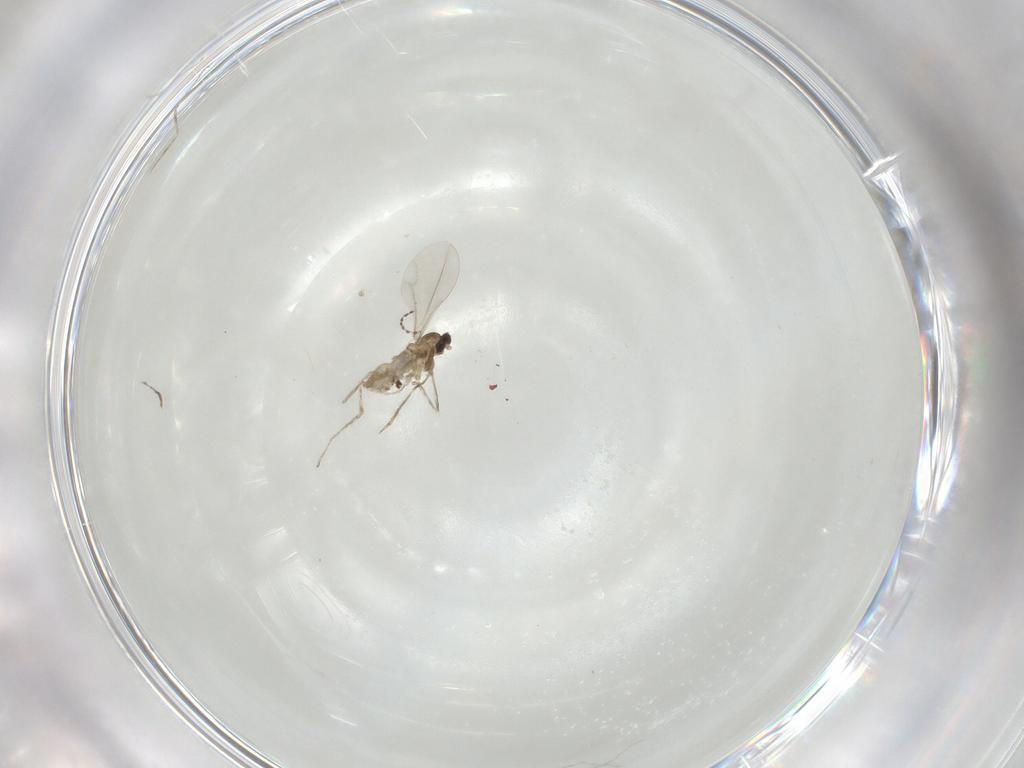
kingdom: Animalia
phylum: Arthropoda
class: Insecta
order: Diptera
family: Cecidomyiidae
